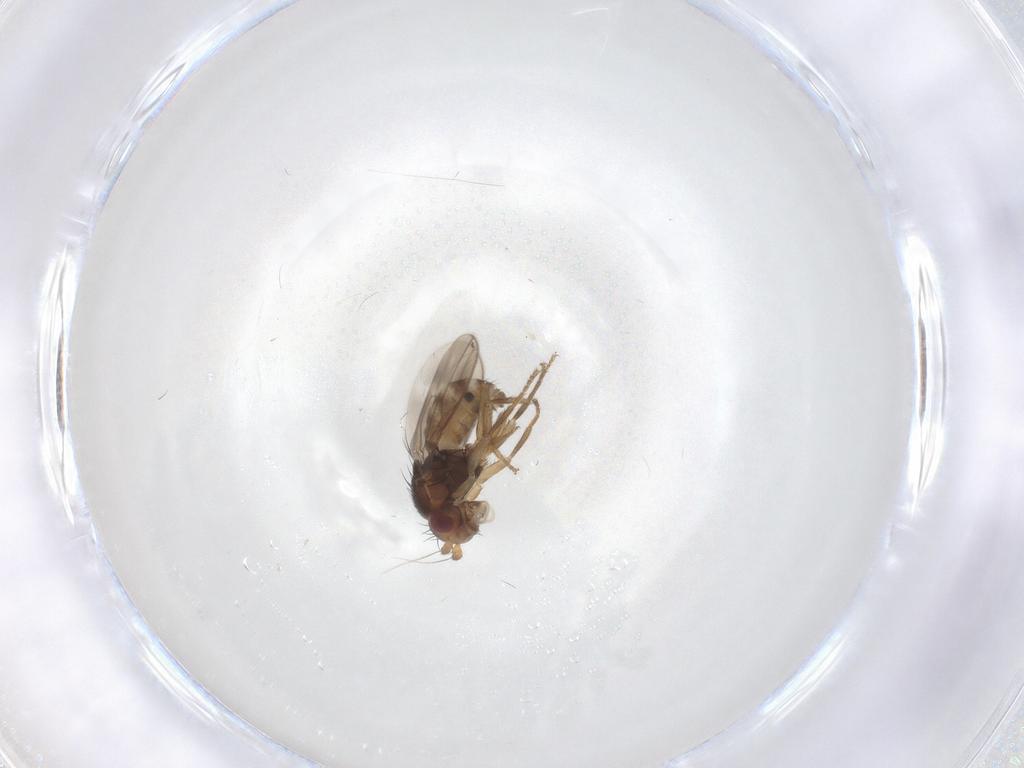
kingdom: Animalia
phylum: Arthropoda
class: Insecta
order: Diptera
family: Sphaeroceridae
